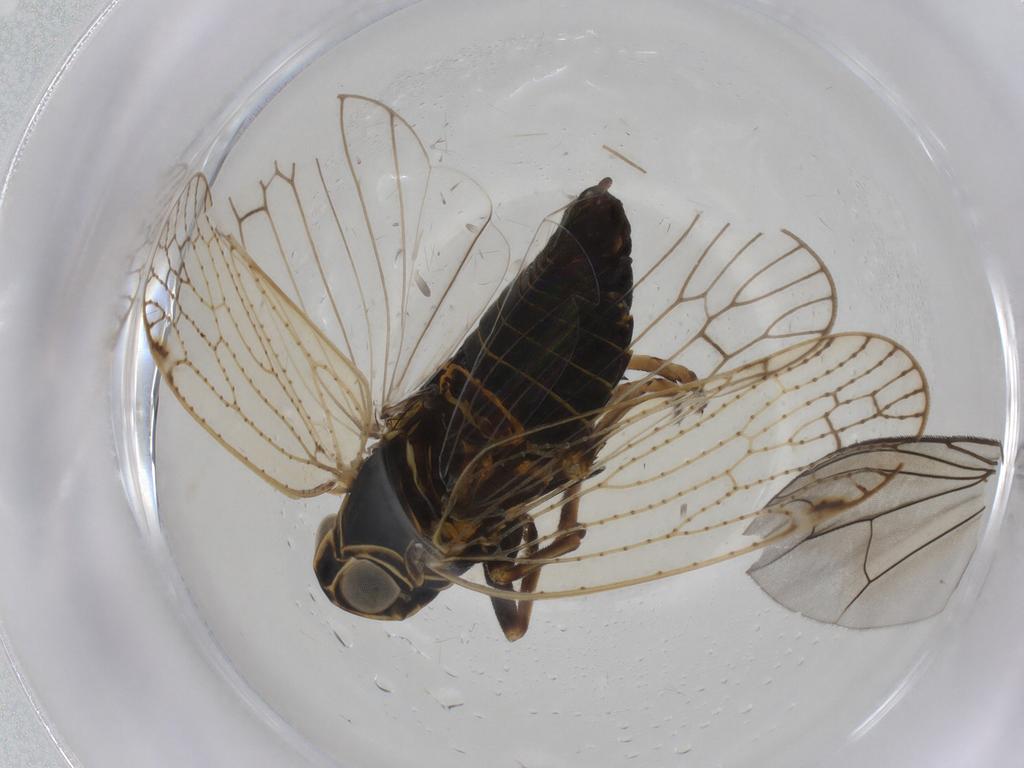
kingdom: Animalia
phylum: Arthropoda
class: Insecta
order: Hemiptera
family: Cixiidae
